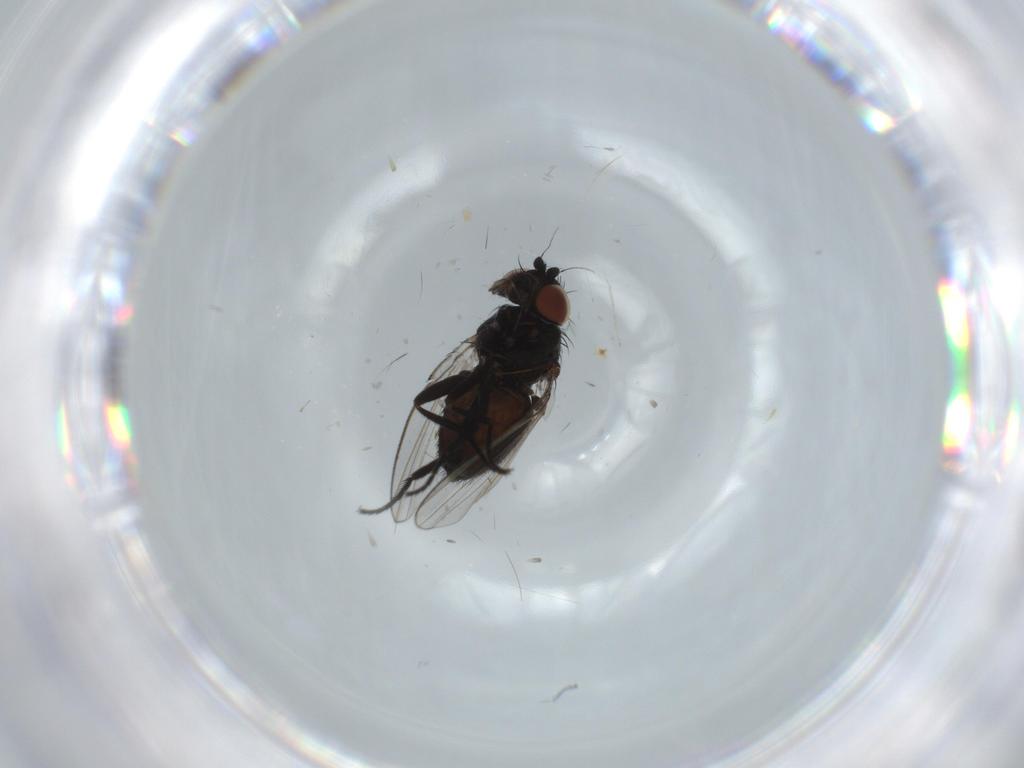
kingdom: Animalia
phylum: Arthropoda
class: Insecta
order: Diptera
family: Milichiidae
